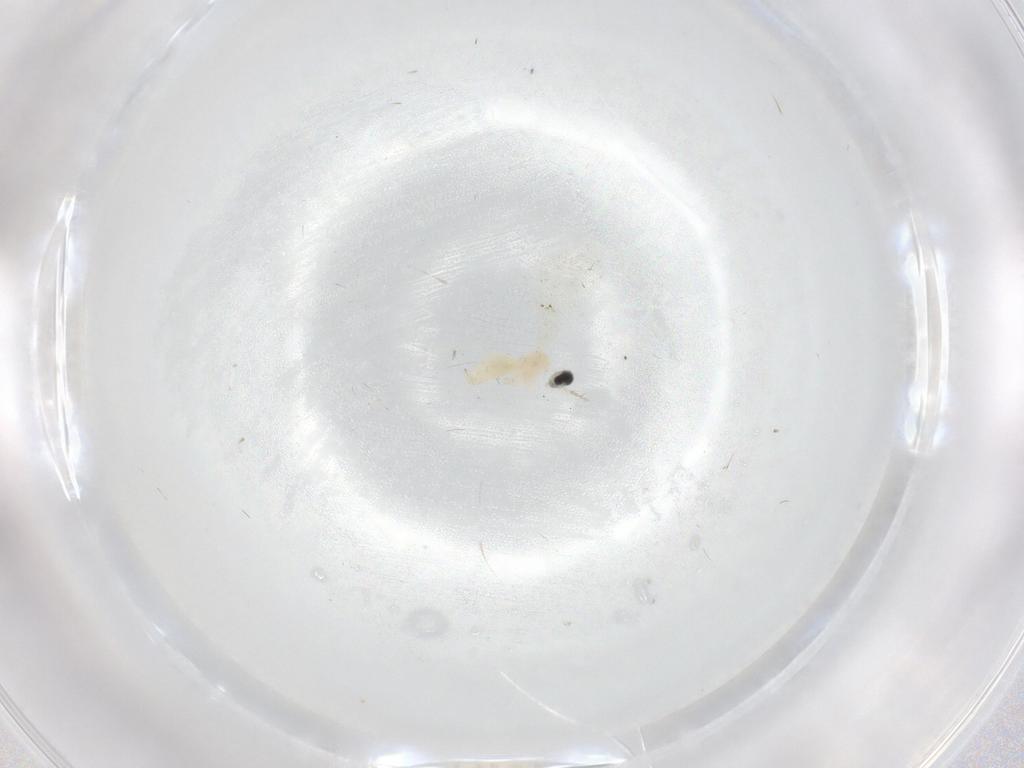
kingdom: Animalia
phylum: Arthropoda
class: Insecta
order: Diptera
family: Cecidomyiidae
